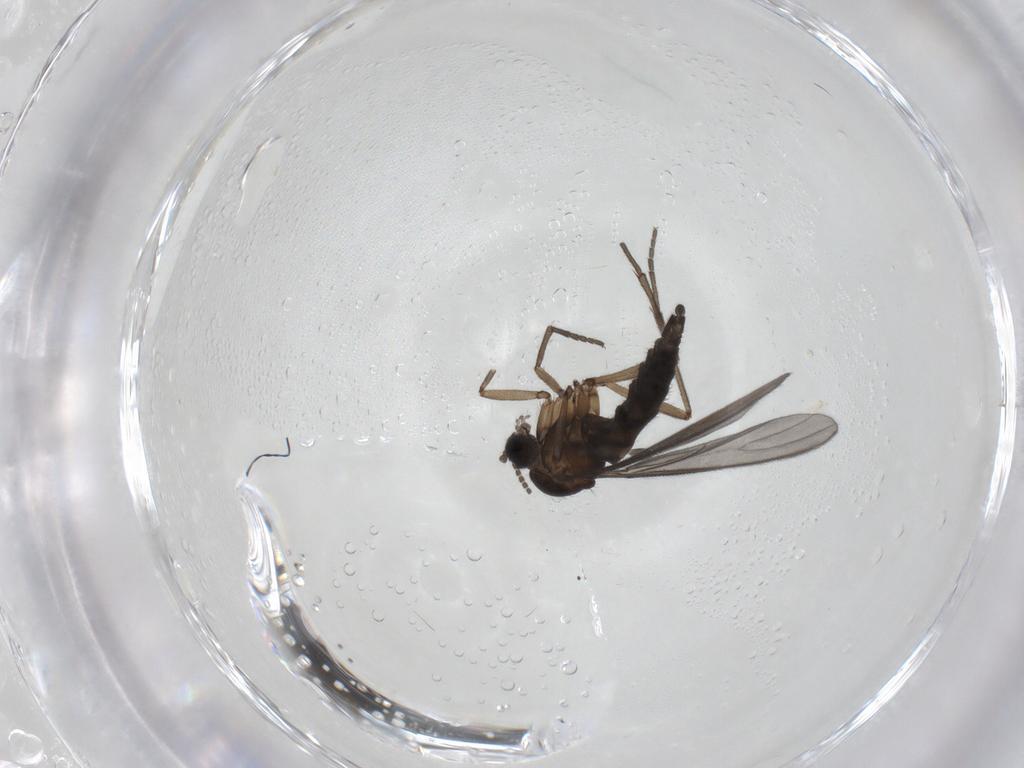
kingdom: Animalia
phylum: Arthropoda
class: Insecta
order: Diptera
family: Sciaridae
